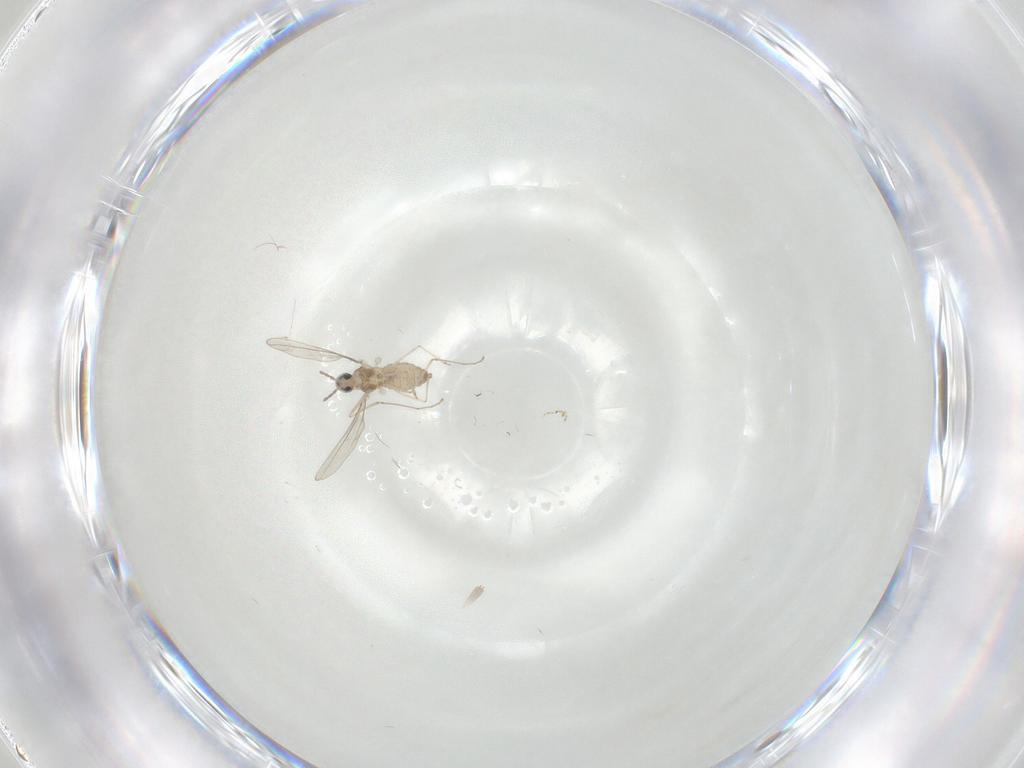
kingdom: Animalia
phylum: Arthropoda
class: Insecta
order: Diptera
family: Cecidomyiidae
